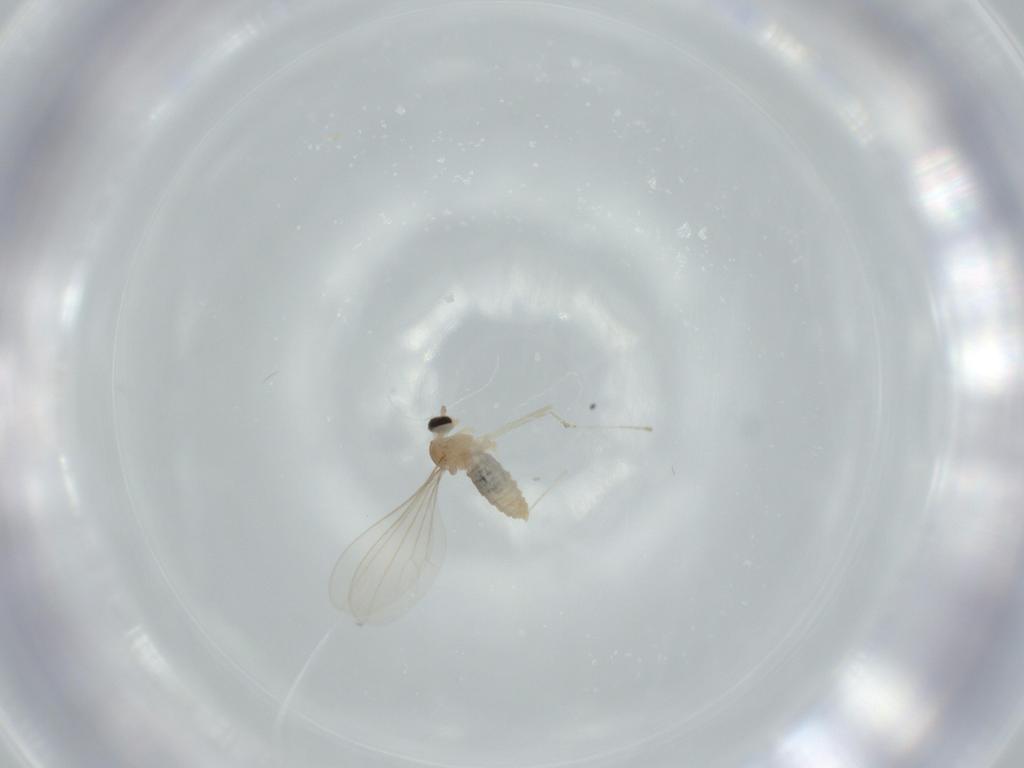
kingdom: Animalia
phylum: Arthropoda
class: Insecta
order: Diptera
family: Cecidomyiidae
